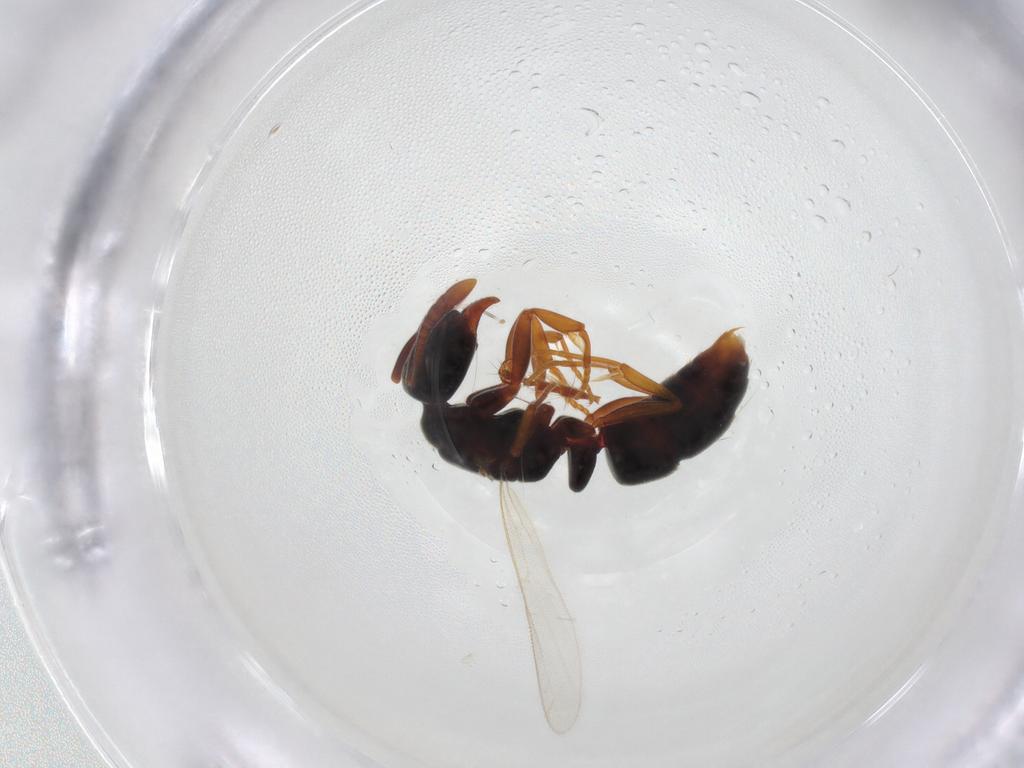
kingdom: Animalia
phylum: Arthropoda
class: Insecta
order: Hymenoptera
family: Formicidae
